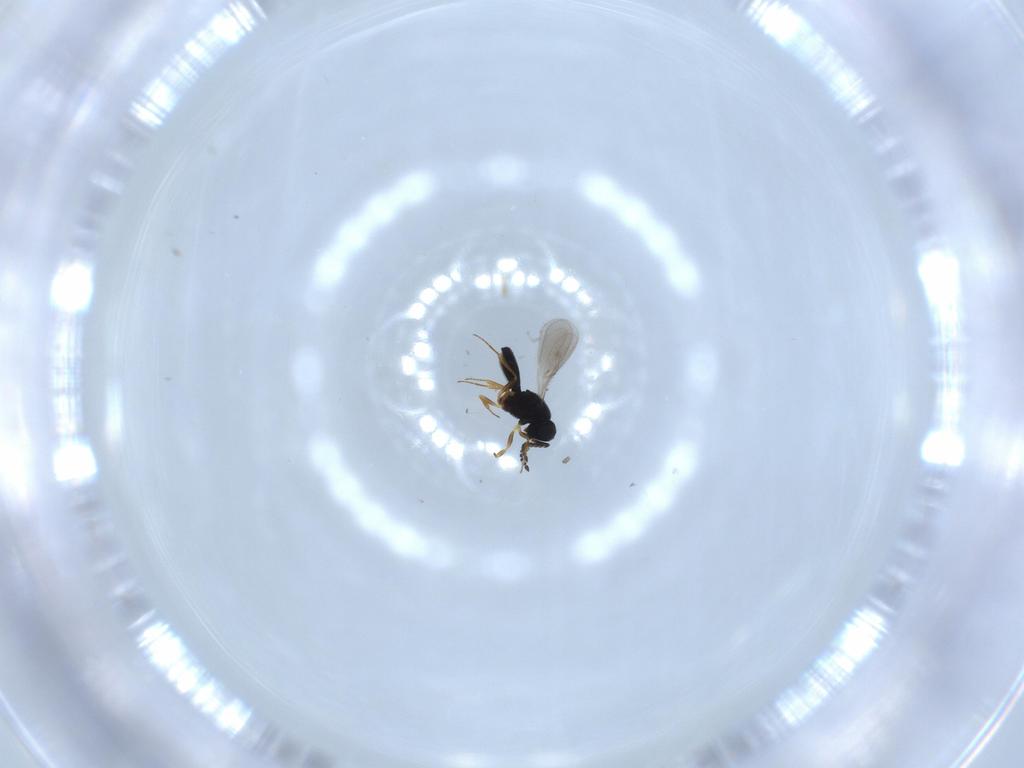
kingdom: Animalia
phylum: Arthropoda
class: Insecta
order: Hymenoptera
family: Scelionidae
